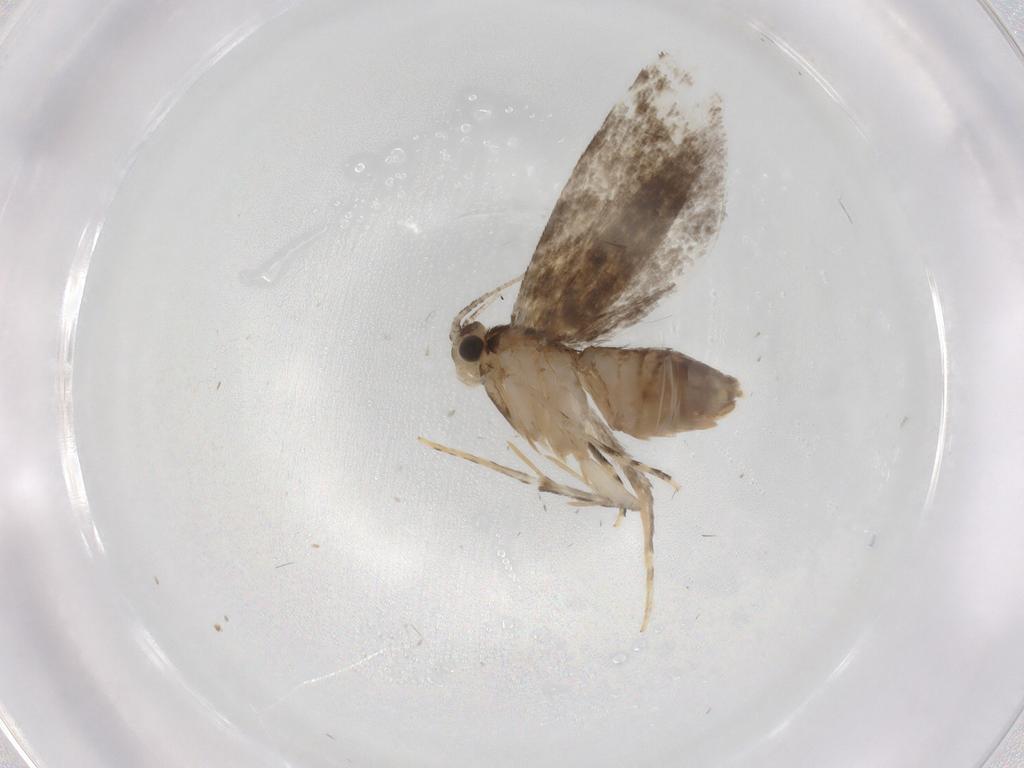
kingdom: Animalia
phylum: Arthropoda
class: Insecta
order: Lepidoptera
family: Tineidae
